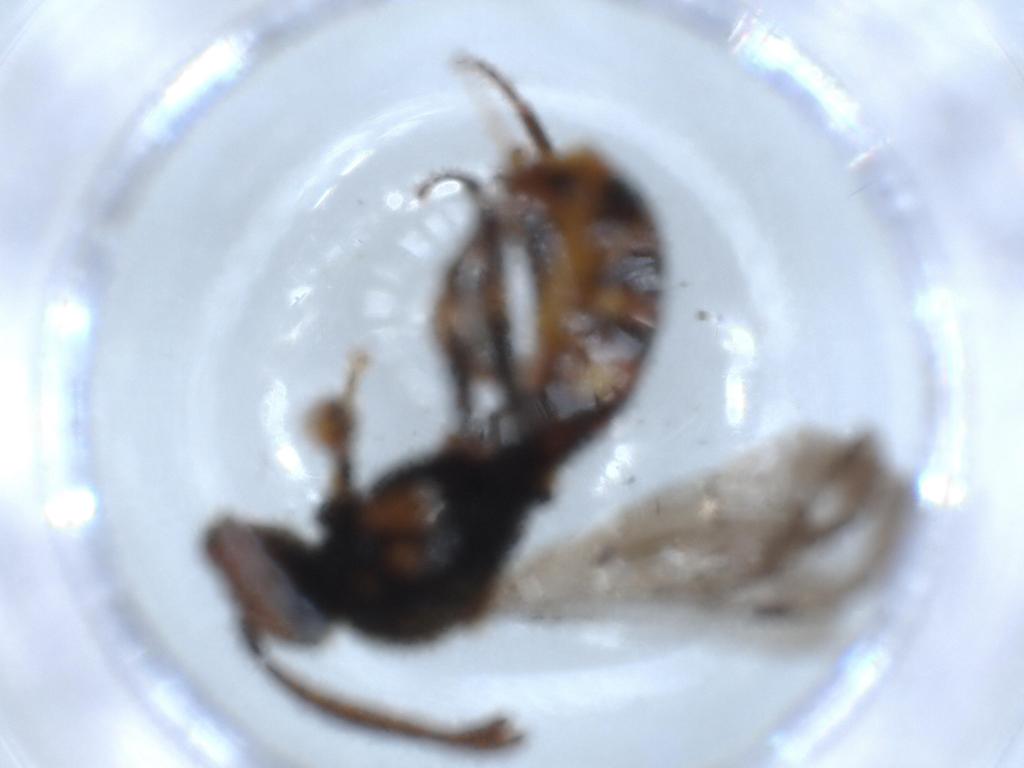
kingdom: Animalia
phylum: Arthropoda
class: Insecta
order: Hymenoptera
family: Apidae
